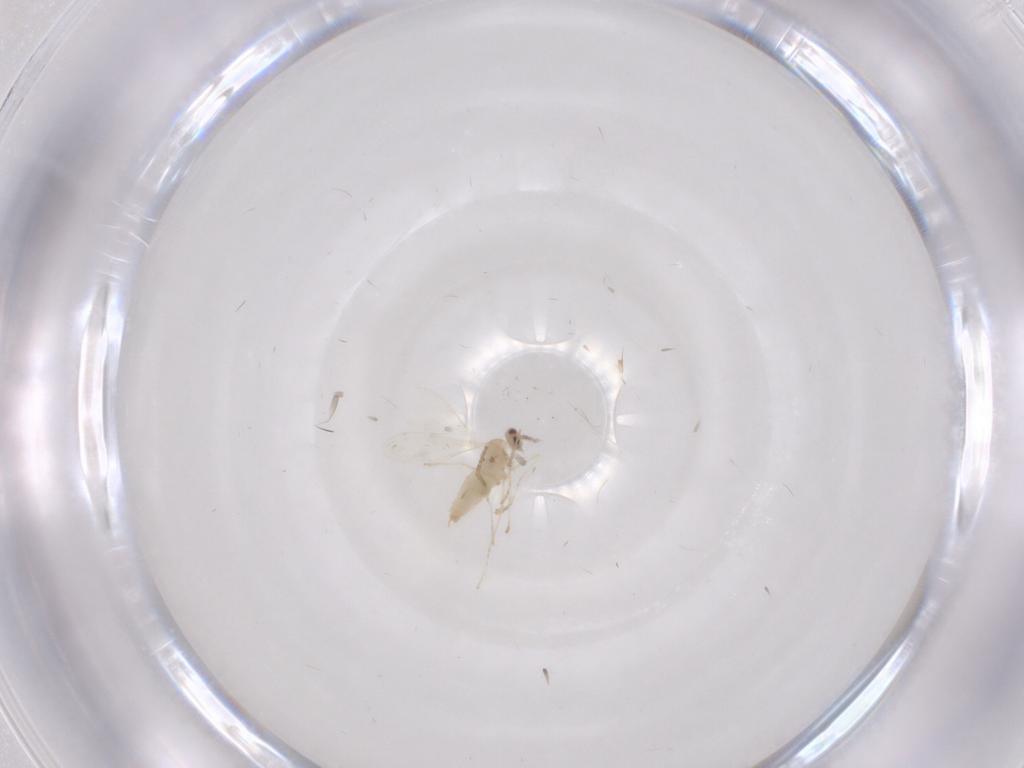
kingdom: Animalia
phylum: Arthropoda
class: Insecta
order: Diptera
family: Cecidomyiidae
